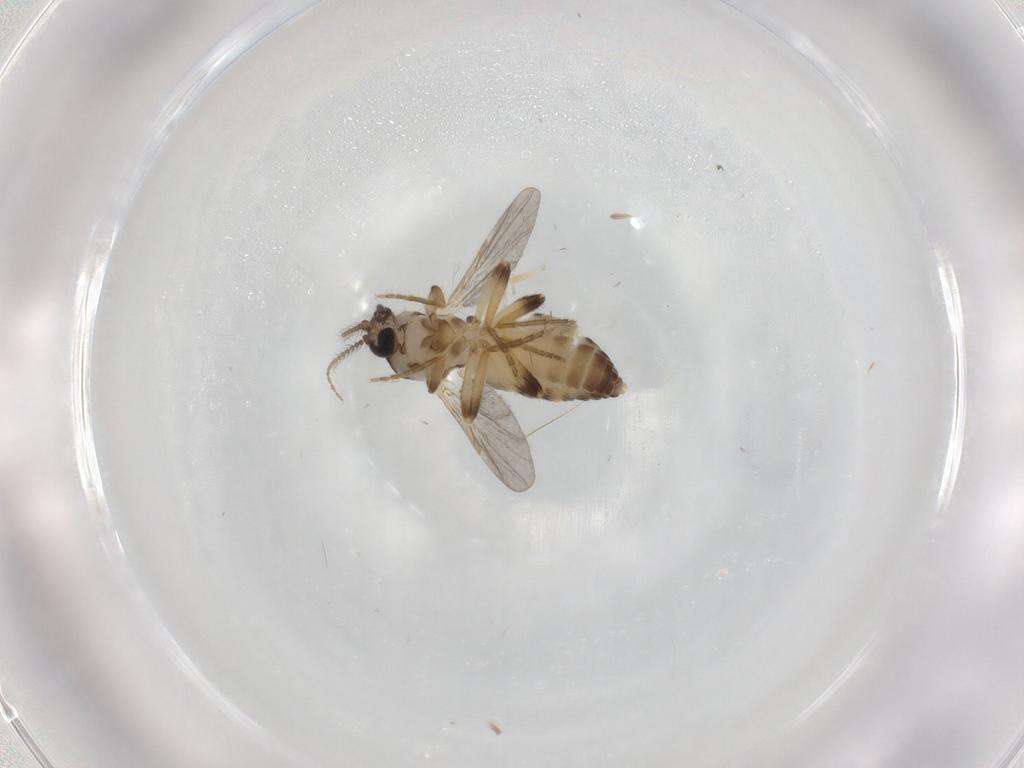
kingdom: Animalia
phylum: Arthropoda
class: Insecta
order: Diptera
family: Ceratopogonidae
